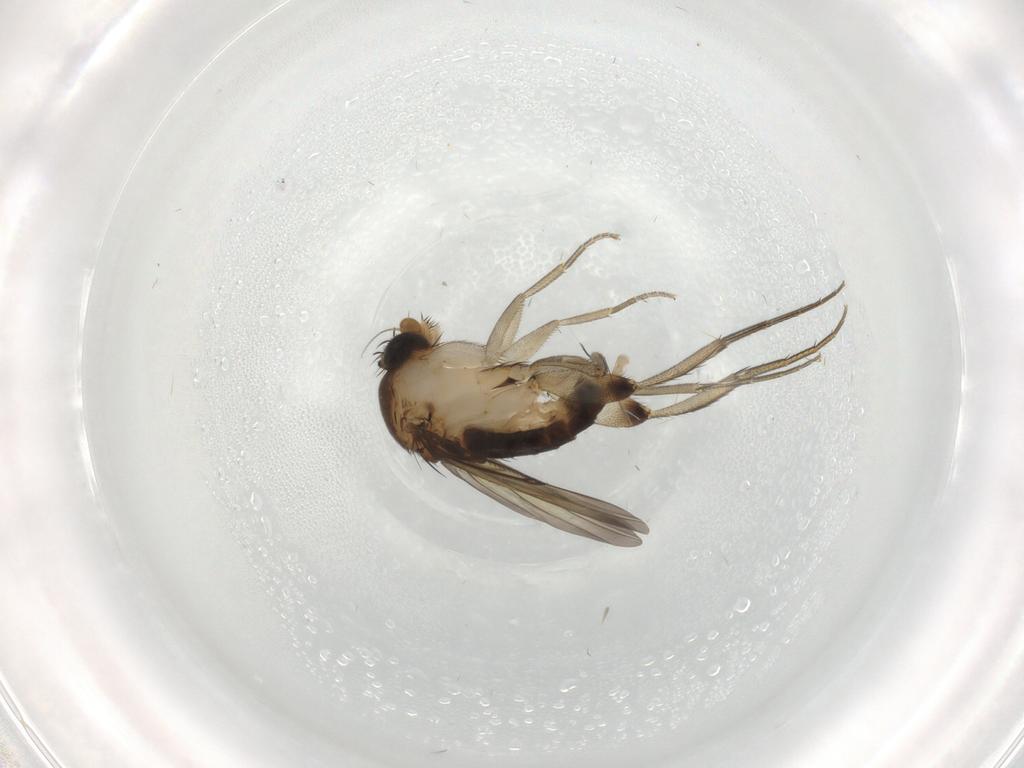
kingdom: Animalia
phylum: Arthropoda
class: Insecta
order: Diptera
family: Phoridae
